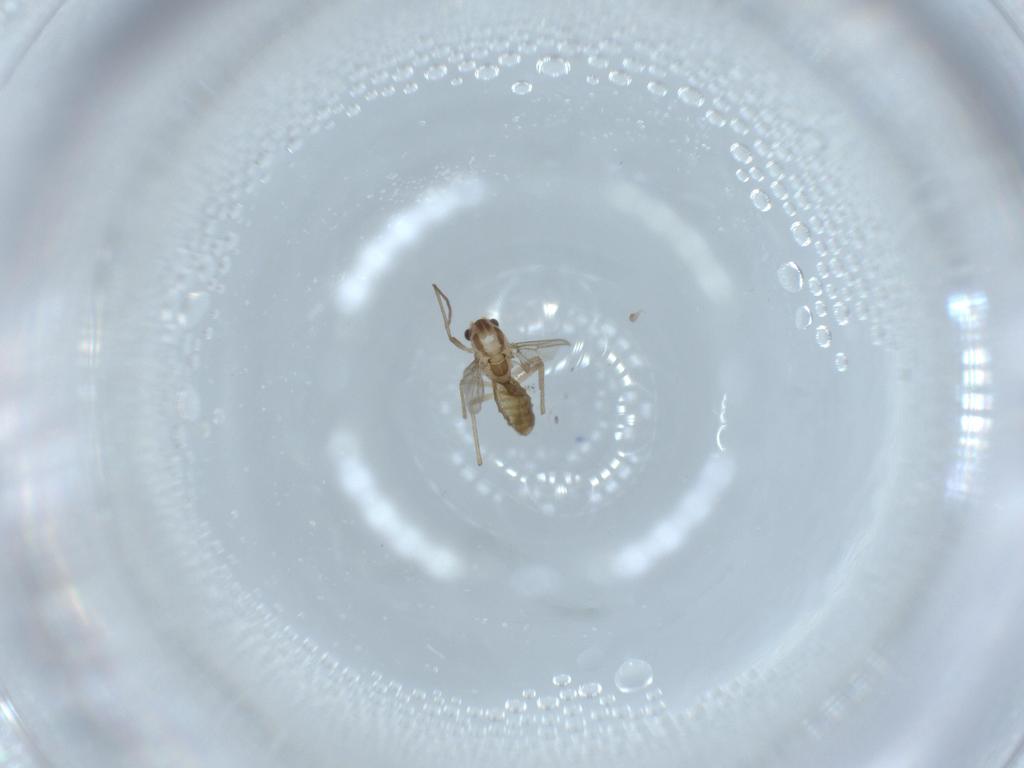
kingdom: Animalia
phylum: Arthropoda
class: Insecta
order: Diptera
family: Chironomidae
